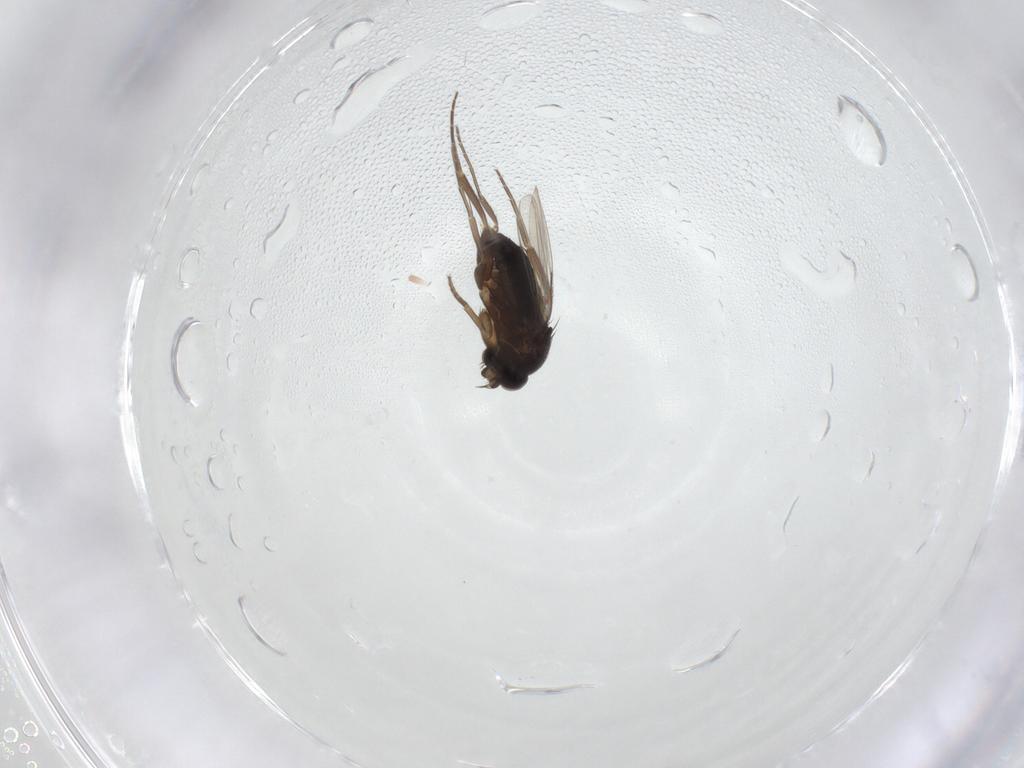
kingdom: Animalia
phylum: Arthropoda
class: Insecta
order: Diptera
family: Phoridae
